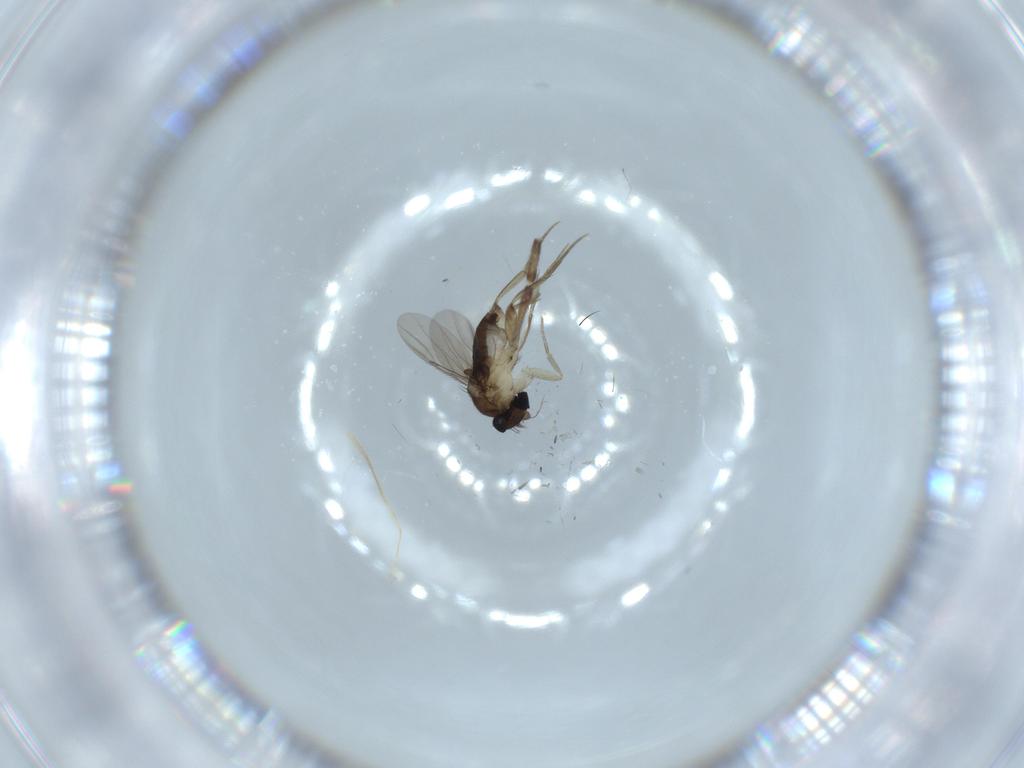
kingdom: Animalia
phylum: Arthropoda
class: Insecta
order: Diptera
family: Phoridae
